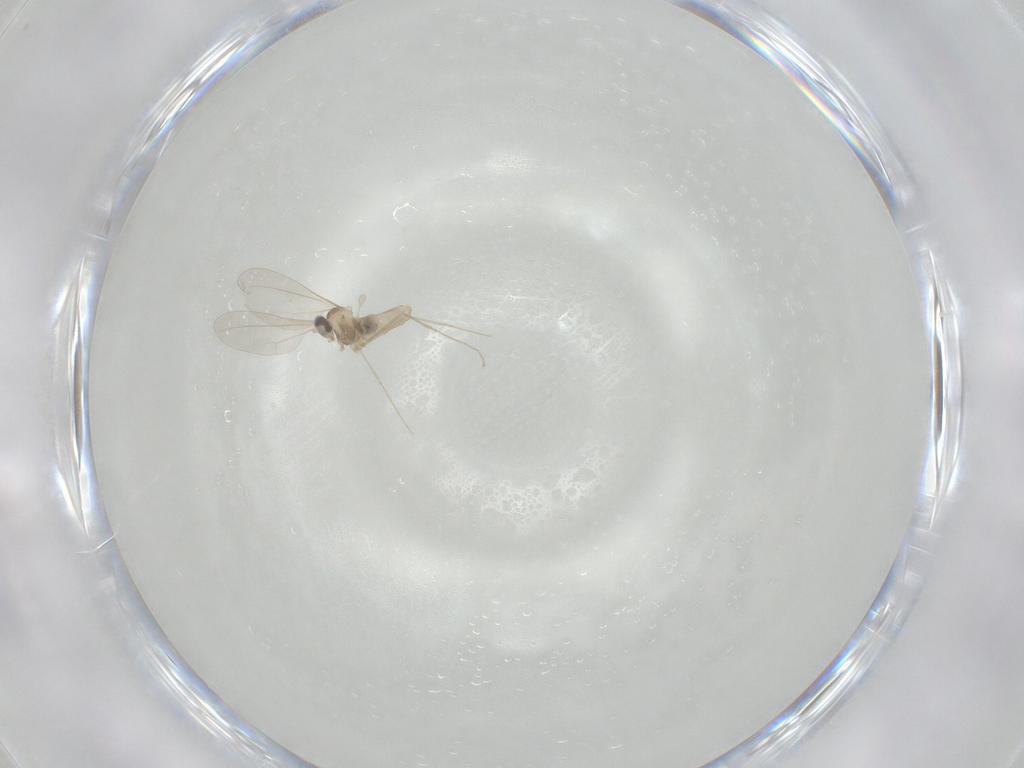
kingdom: Animalia
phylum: Arthropoda
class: Insecta
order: Diptera
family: Cecidomyiidae
